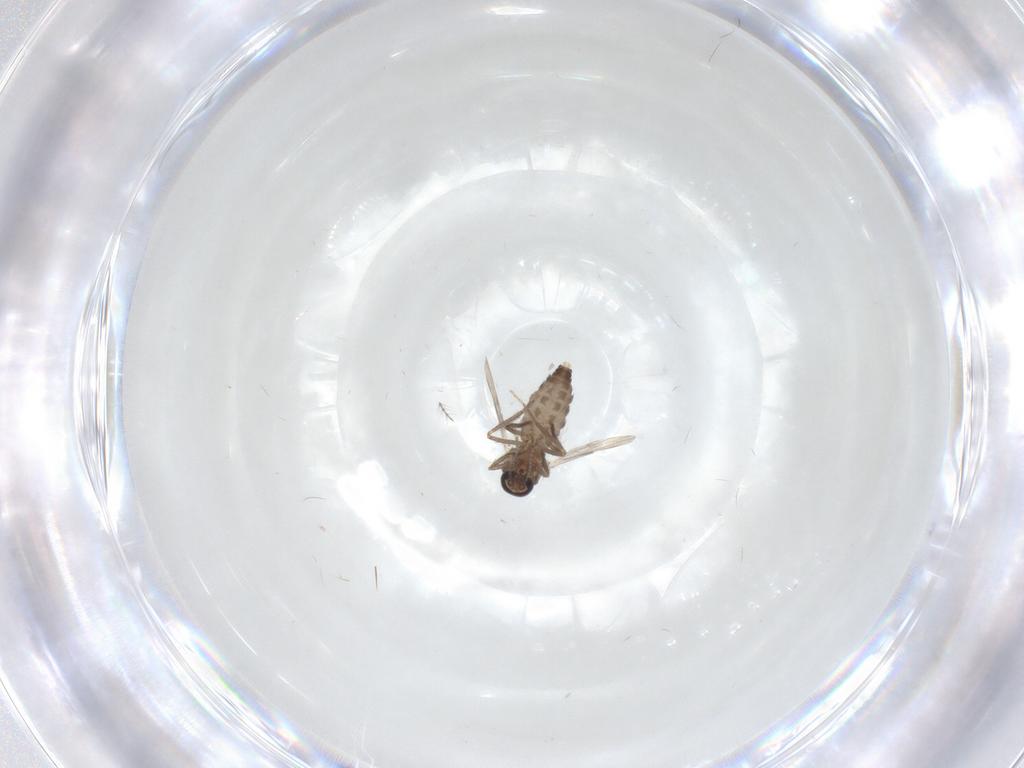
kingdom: Animalia
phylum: Arthropoda
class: Insecta
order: Diptera
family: Ceratopogonidae
